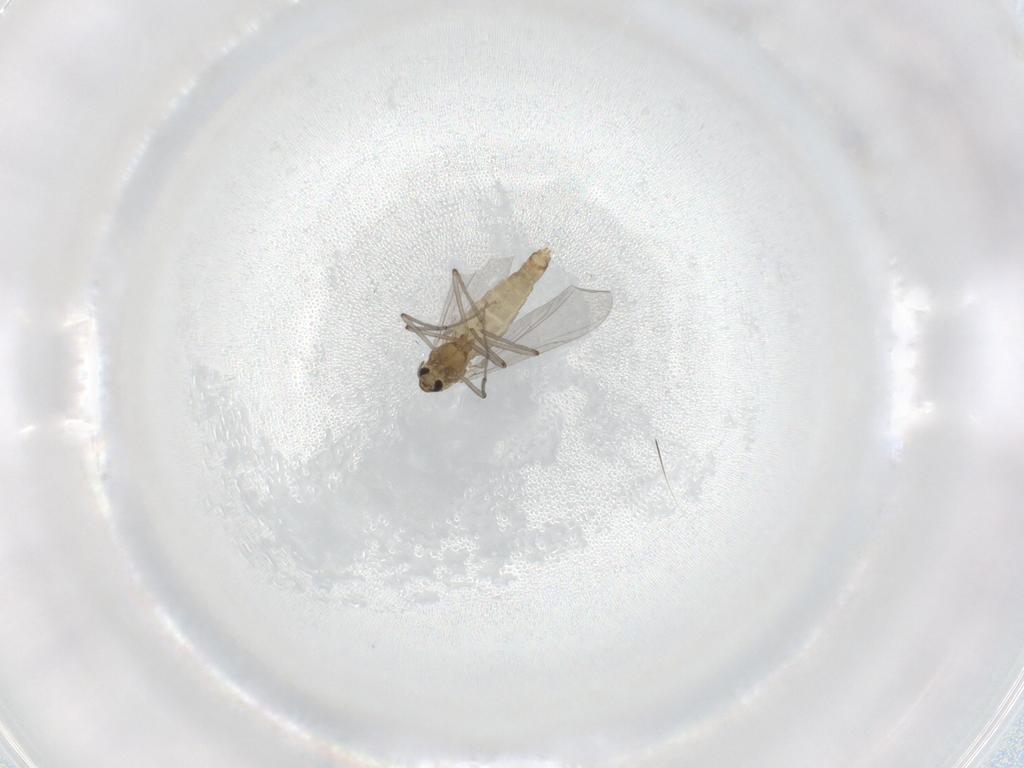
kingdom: Animalia
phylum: Arthropoda
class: Insecta
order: Diptera
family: Chironomidae
